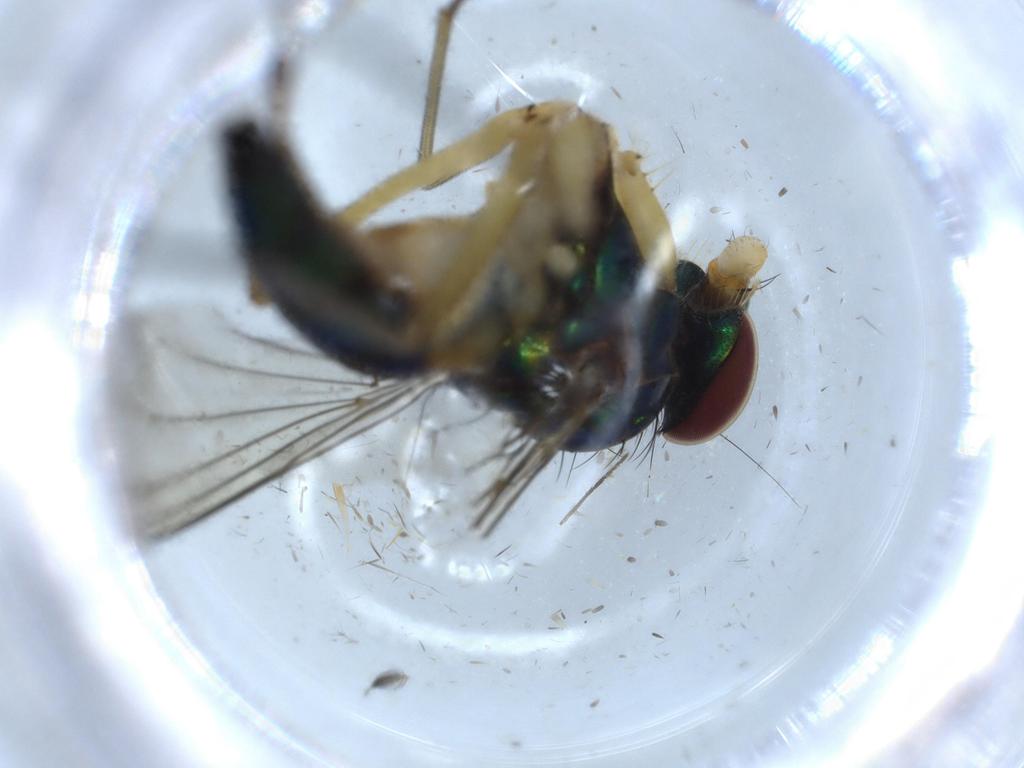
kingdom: Animalia
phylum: Arthropoda
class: Insecta
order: Diptera
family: Dolichopodidae
